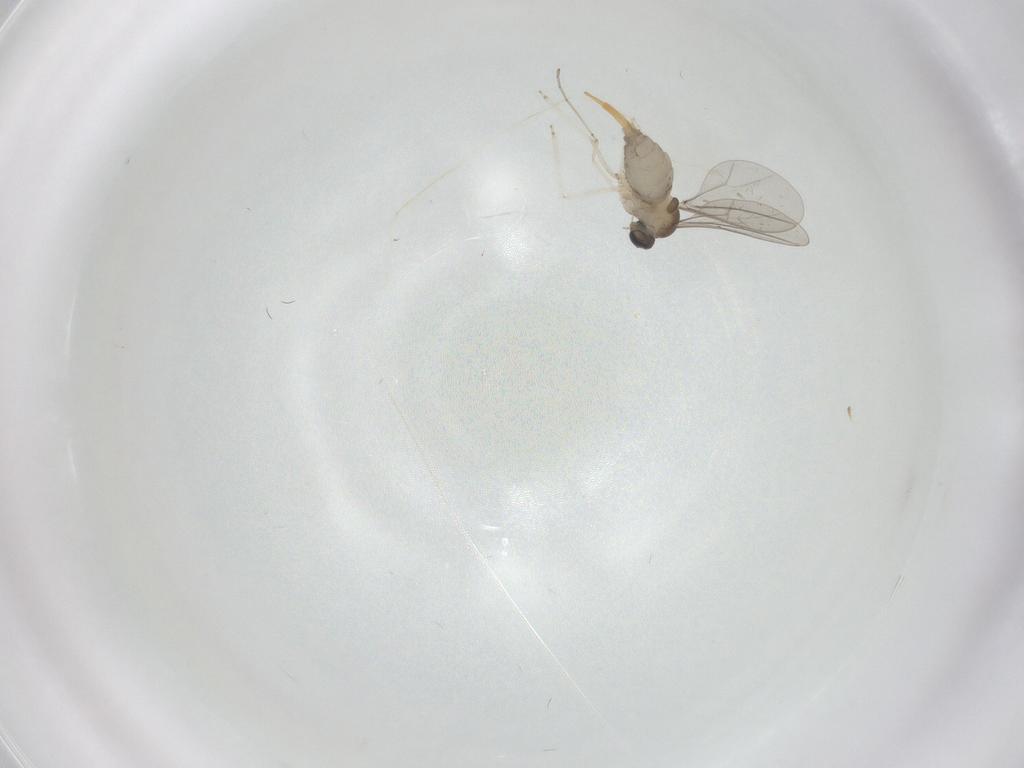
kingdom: Animalia
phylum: Arthropoda
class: Insecta
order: Diptera
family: Cecidomyiidae
